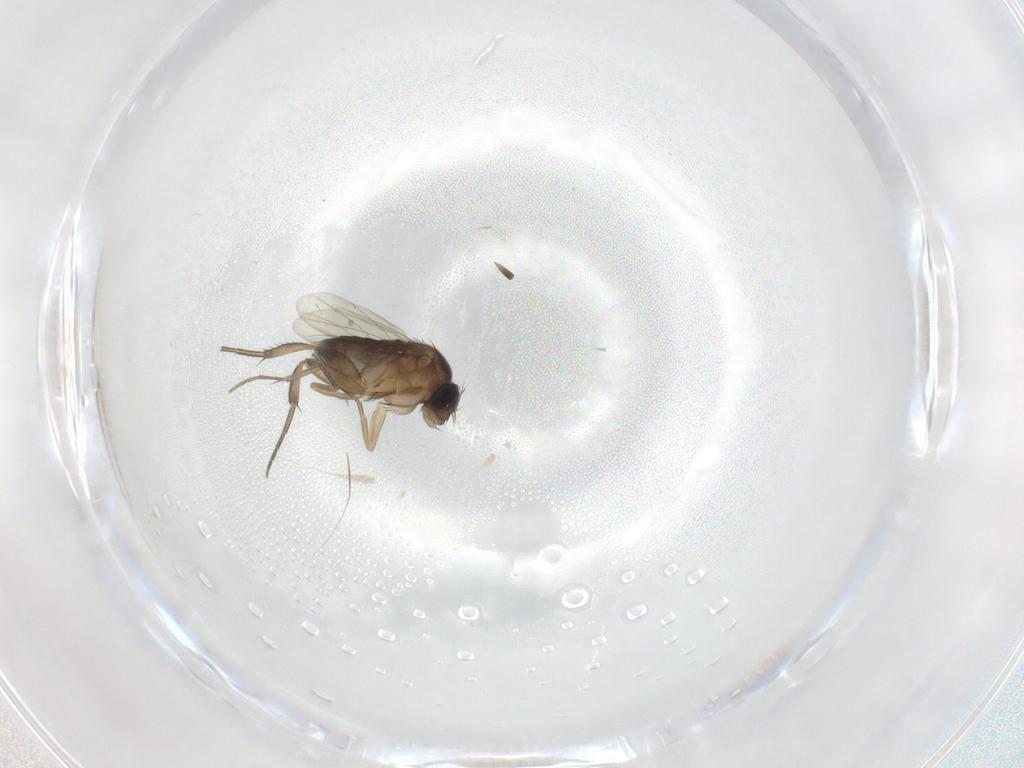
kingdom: Animalia
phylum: Arthropoda
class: Insecta
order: Diptera
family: Phoridae
